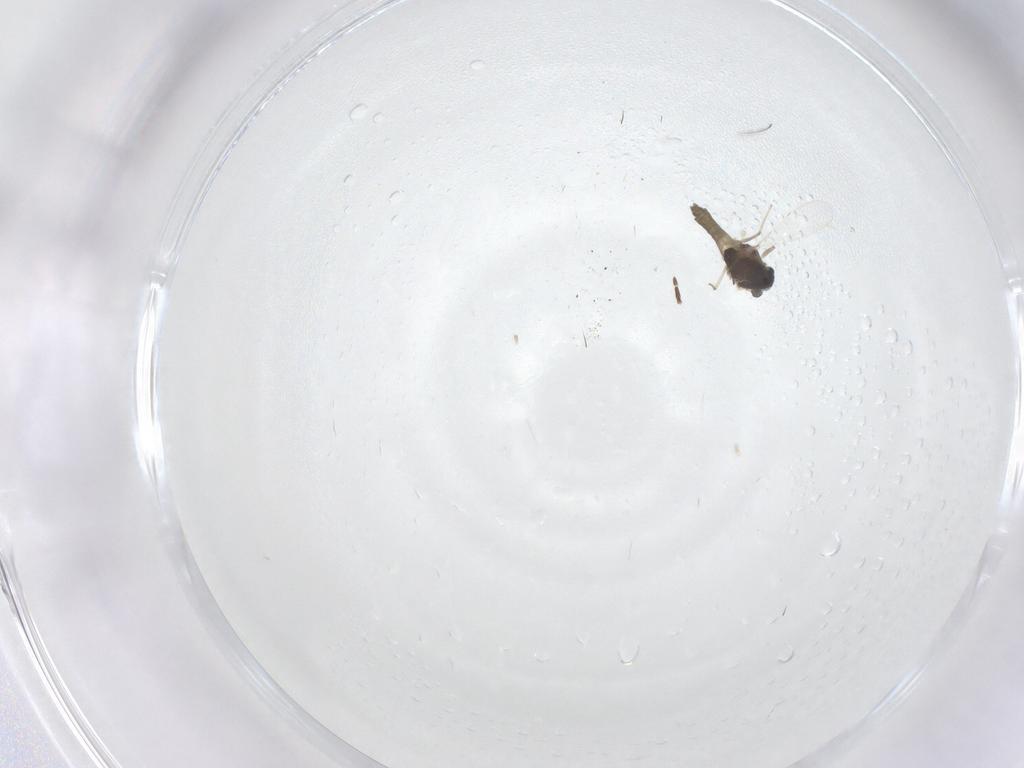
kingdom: Animalia
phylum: Arthropoda
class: Insecta
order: Diptera
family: Chironomidae
